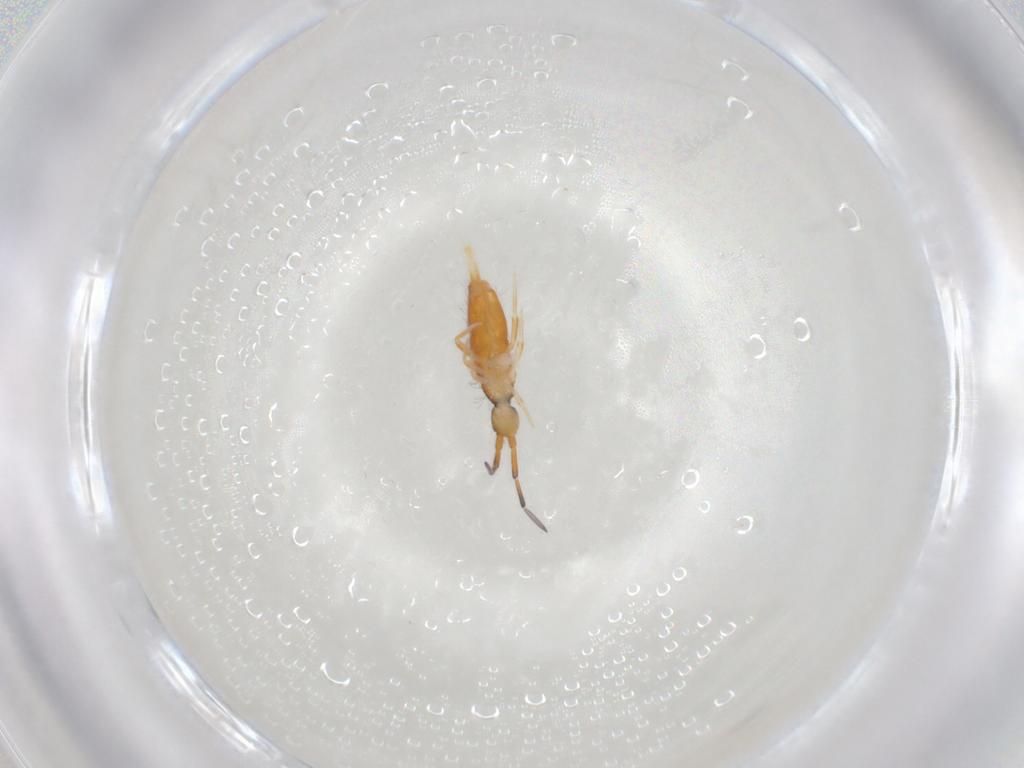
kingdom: Animalia
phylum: Arthropoda
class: Collembola
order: Entomobryomorpha
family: Entomobryidae
